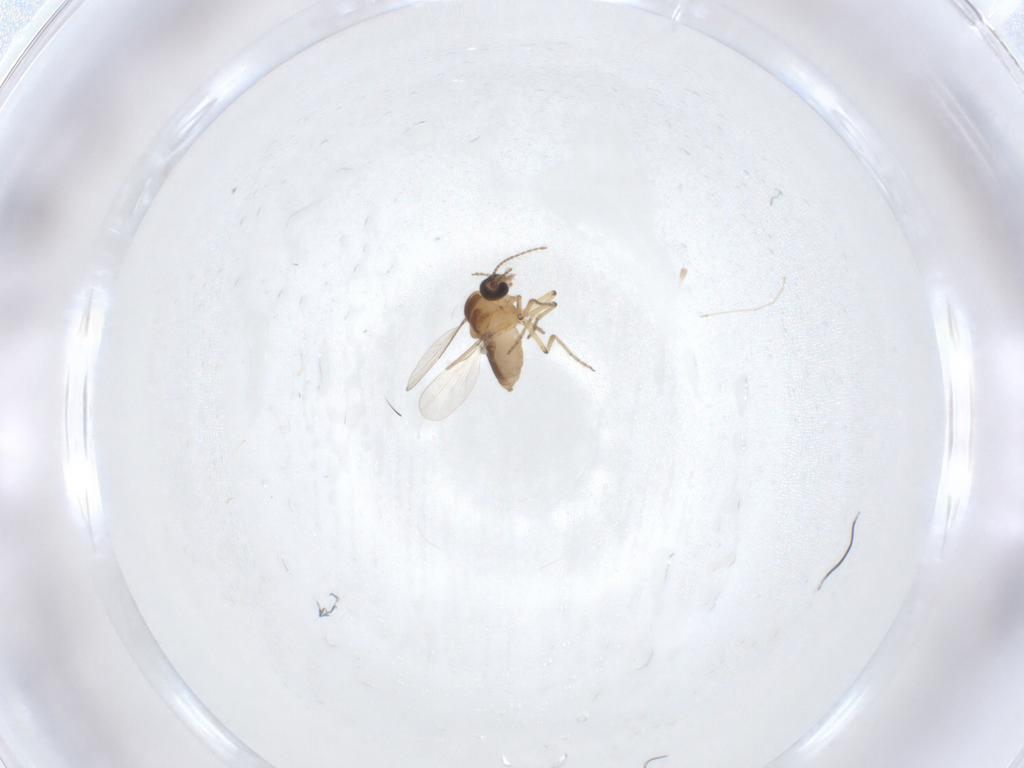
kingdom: Animalia
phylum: Arthropoda
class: Insecta
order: Diptera
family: Ceratopogonidae
